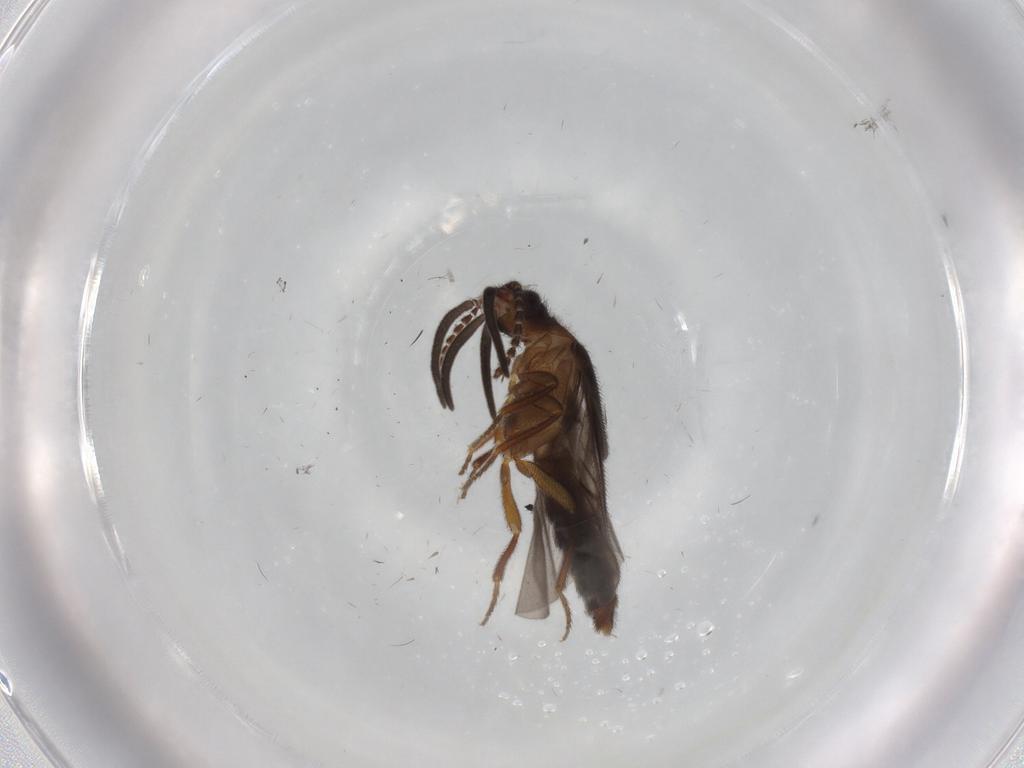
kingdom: Animalia
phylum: Arthropoda
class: Insecta
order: Coleoptera
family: Omethidae
